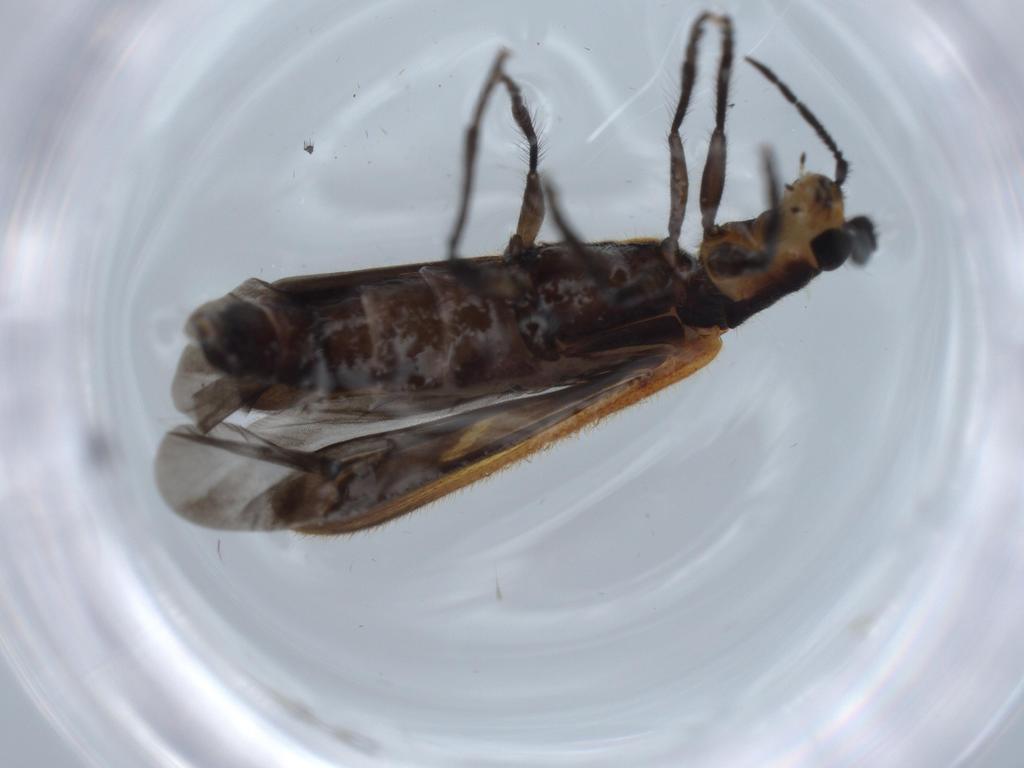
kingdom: Animalia
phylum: Arthropoda
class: Insecta
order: Coleoptera
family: Cleridae
